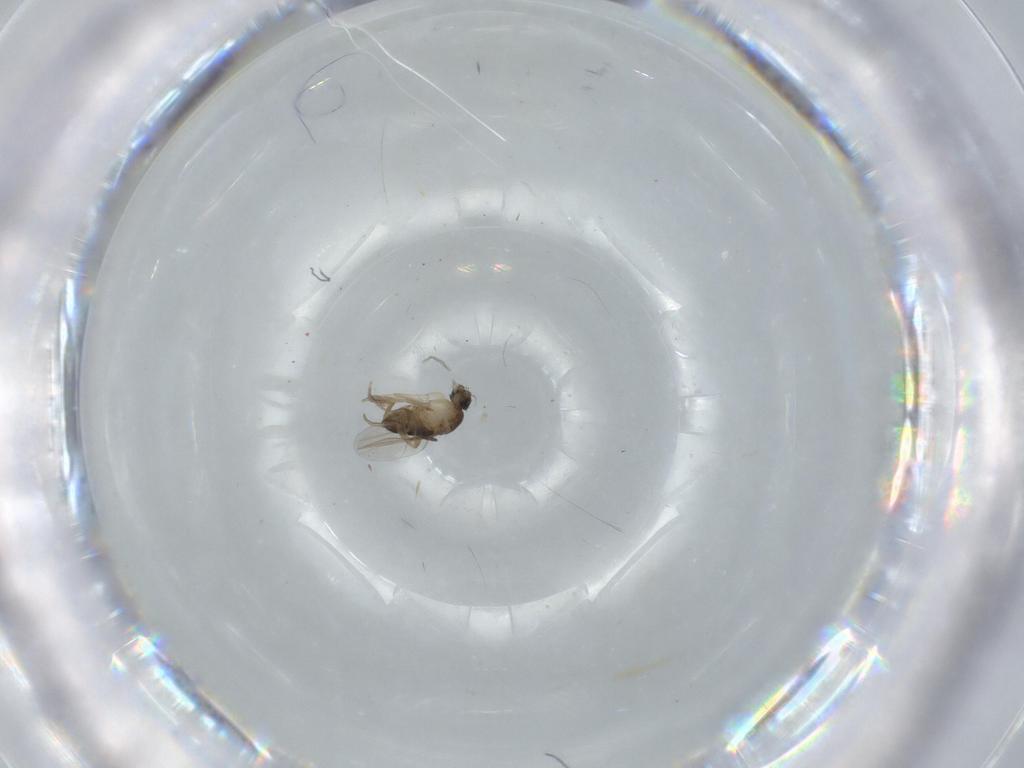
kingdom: Animalia
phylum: Arthropoda
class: Insecta
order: Diptera
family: Phoridae
